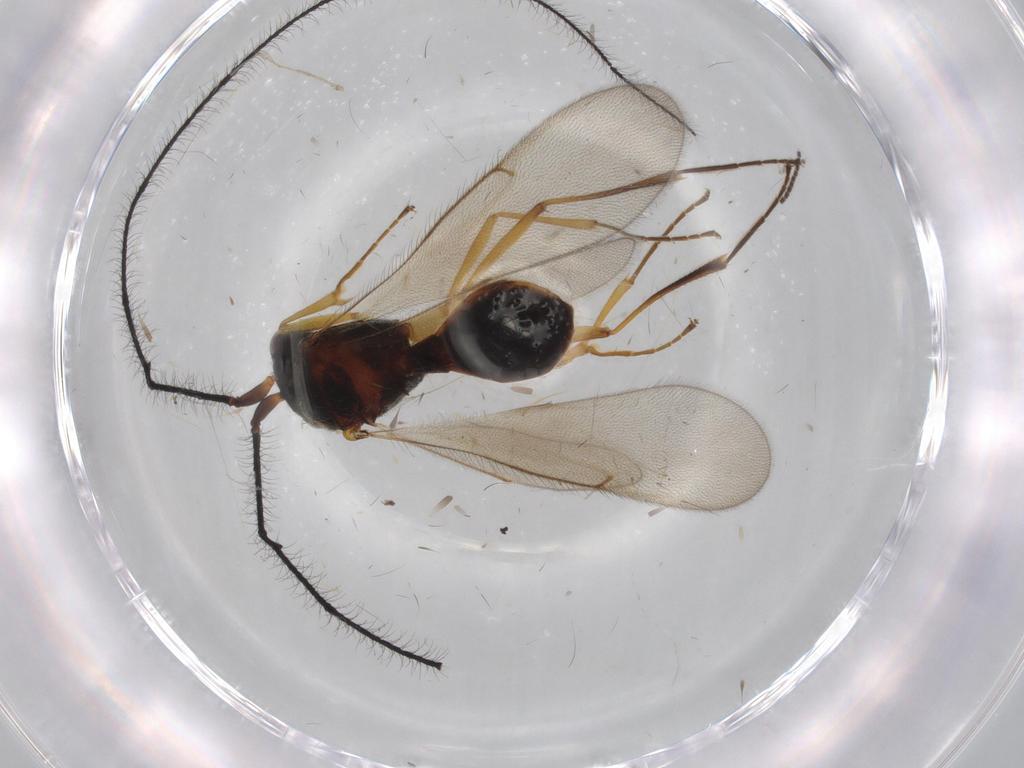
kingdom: Animalia
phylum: Arthropoda
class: Insecta
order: Hymenoptera
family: Scelionidae
